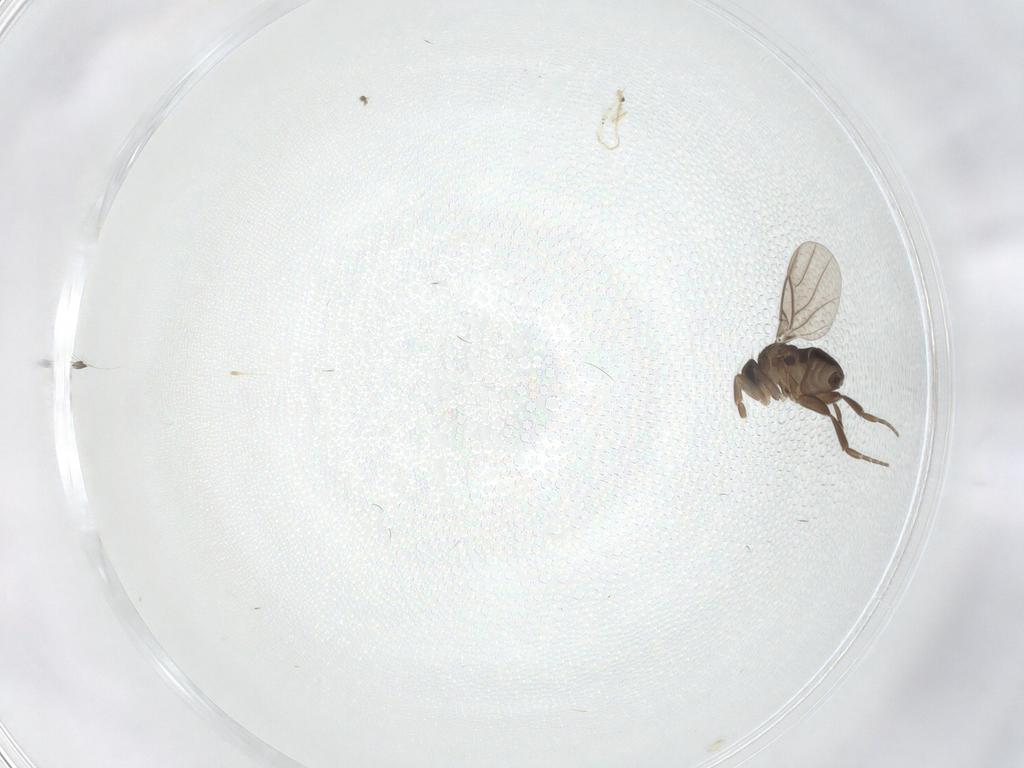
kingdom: Animalia
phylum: Arthropoda
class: Insecta
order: Diptera
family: Phoridae
